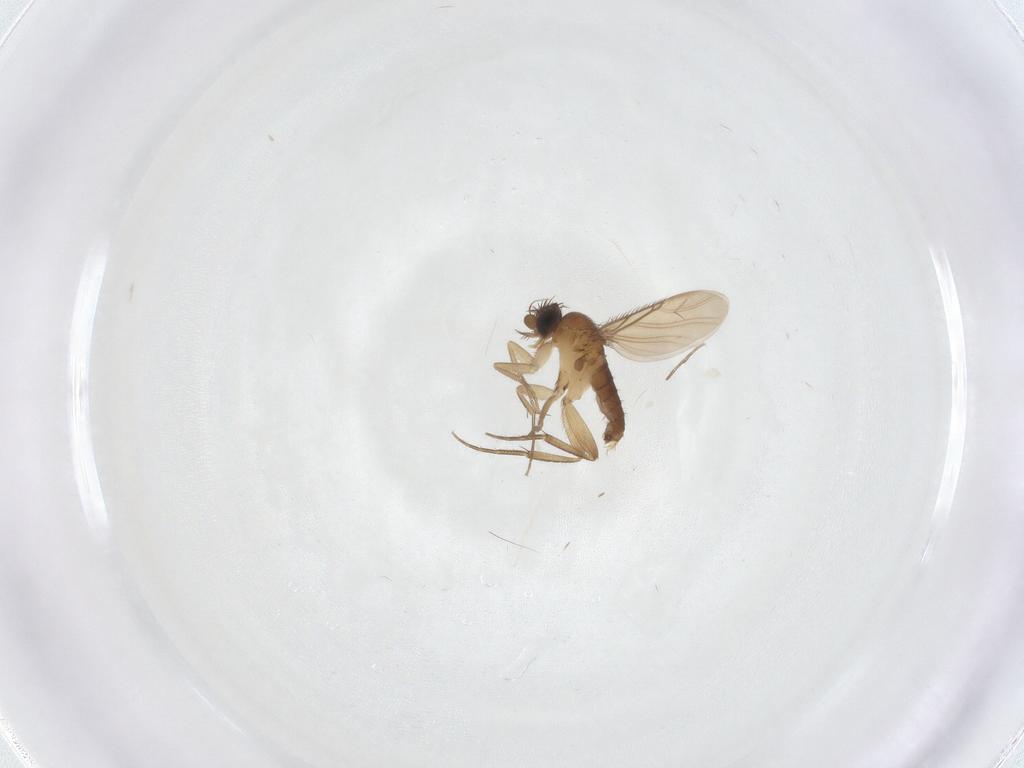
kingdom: Animalia
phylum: Arthropoda
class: Insecta
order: Diptera
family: Phoridae
